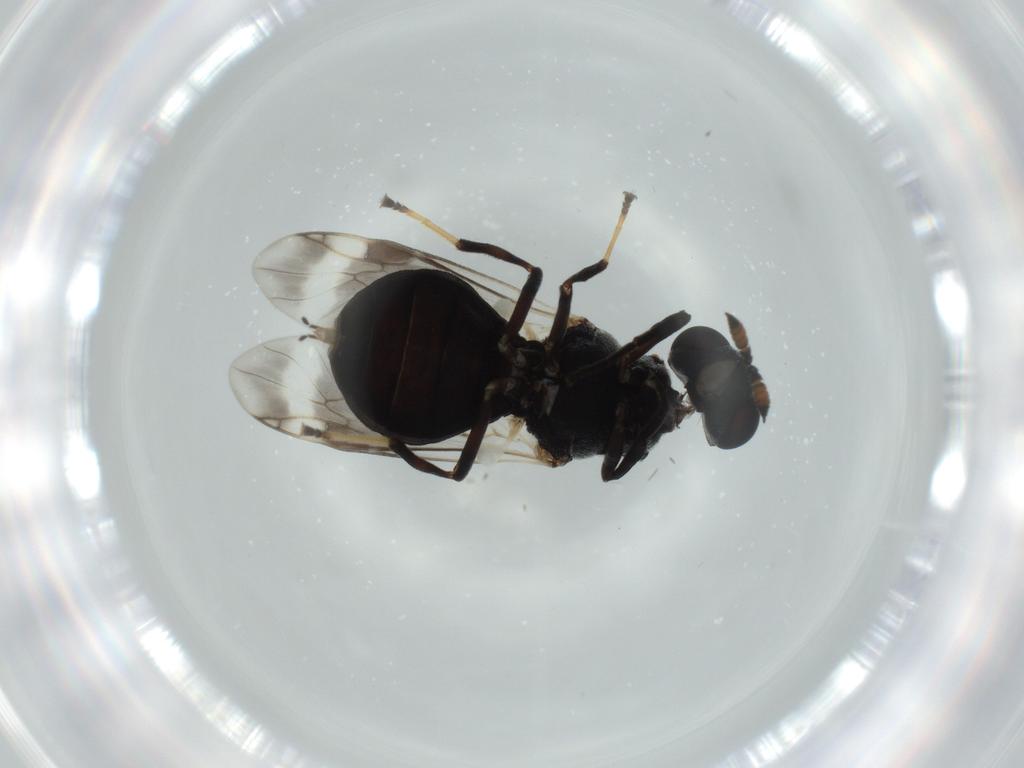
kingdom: Animalia
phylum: Arthropoda
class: Insecta
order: Diptera
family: Stratiomyidae
